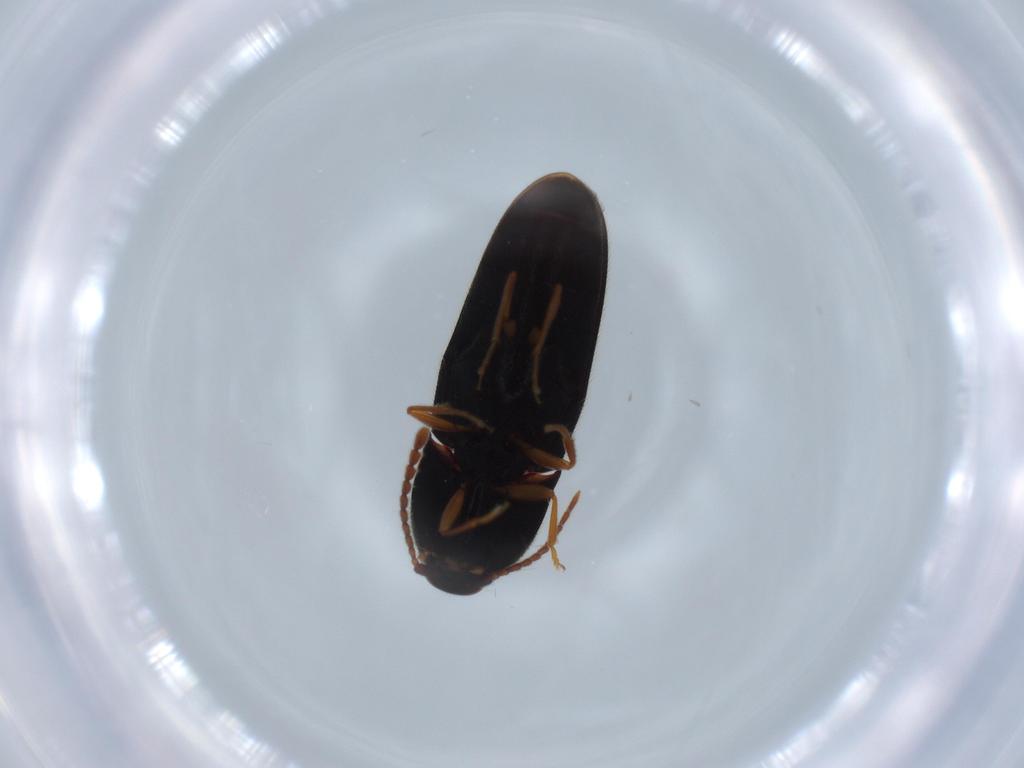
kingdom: Animalia
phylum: Arthropoda
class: Insecta
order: Coleoptera
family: Elateridae
